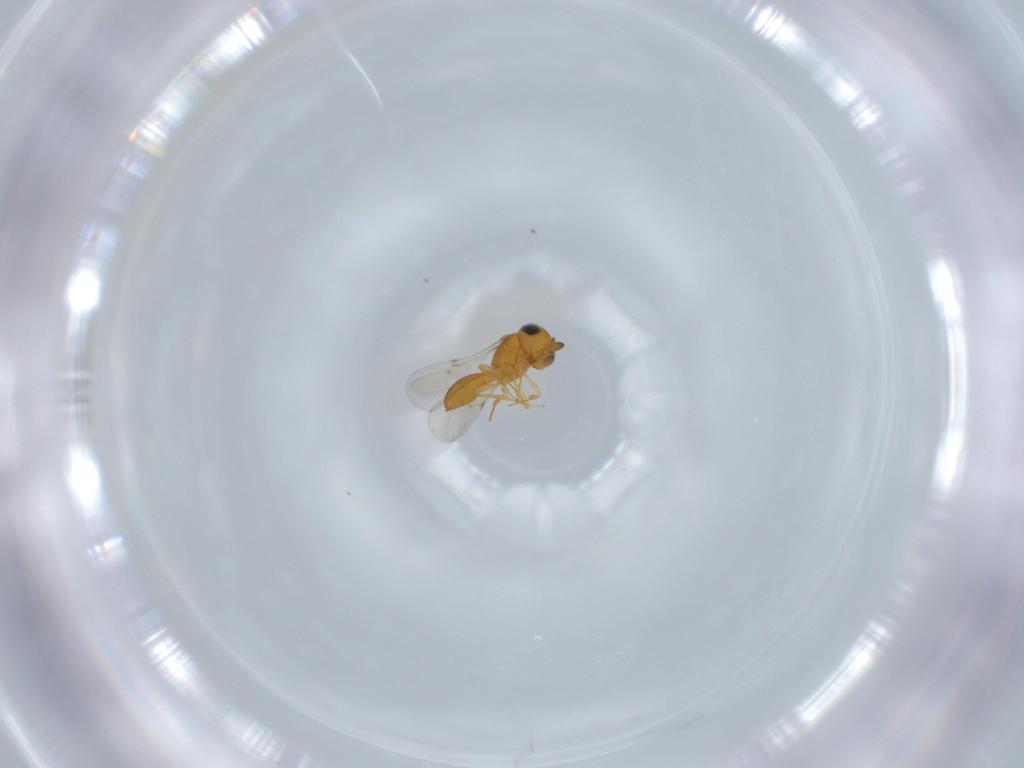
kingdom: Animalia
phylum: Arthropoda
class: Insecta
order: Hymenoptera
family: Scelionidae
